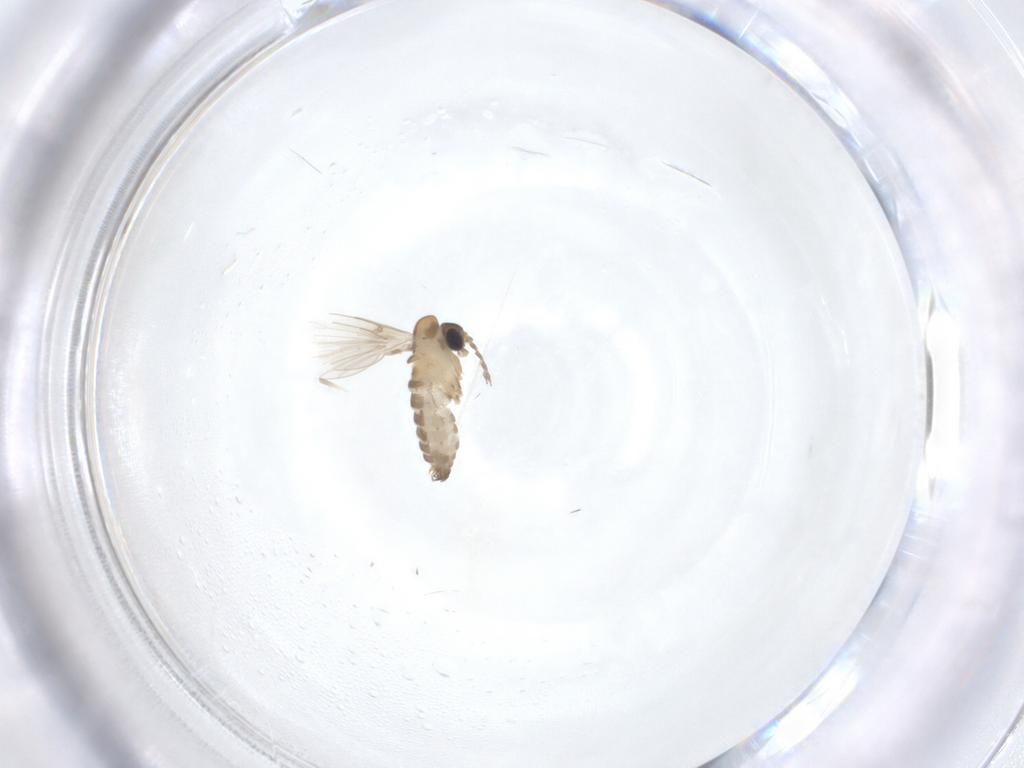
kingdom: Animalia
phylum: Arthropoda
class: Insecta
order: Diptera
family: Psychodidae
